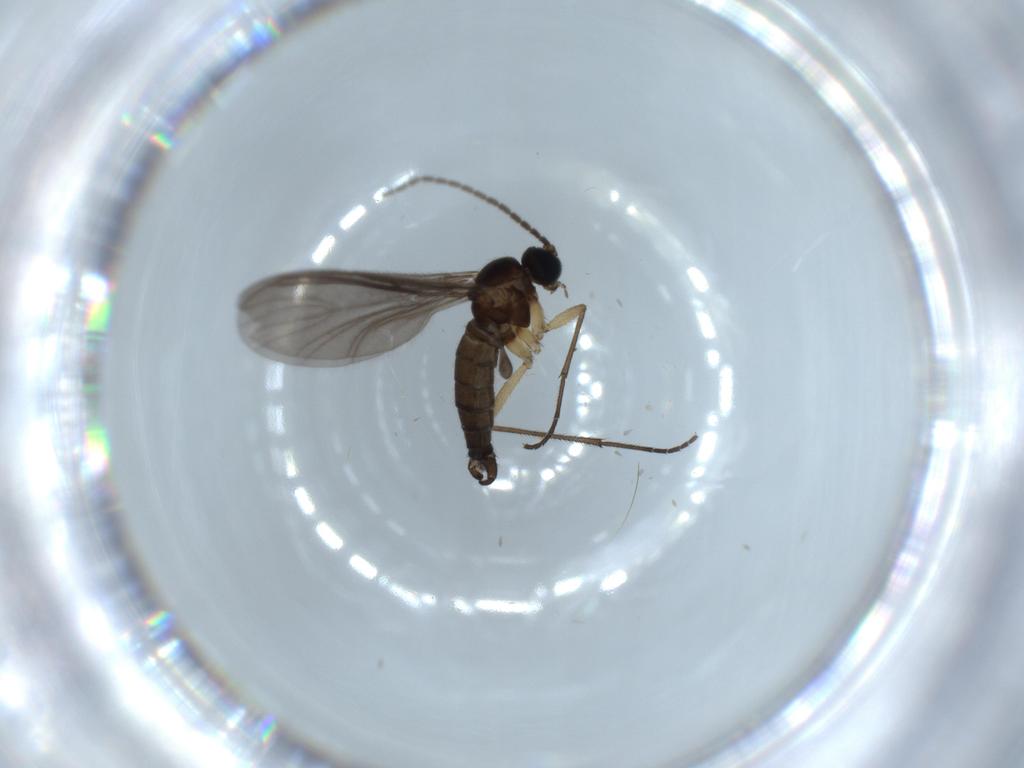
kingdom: Animalia
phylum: Arthropoda
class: Insecta
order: Diptera
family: Sciaridae
